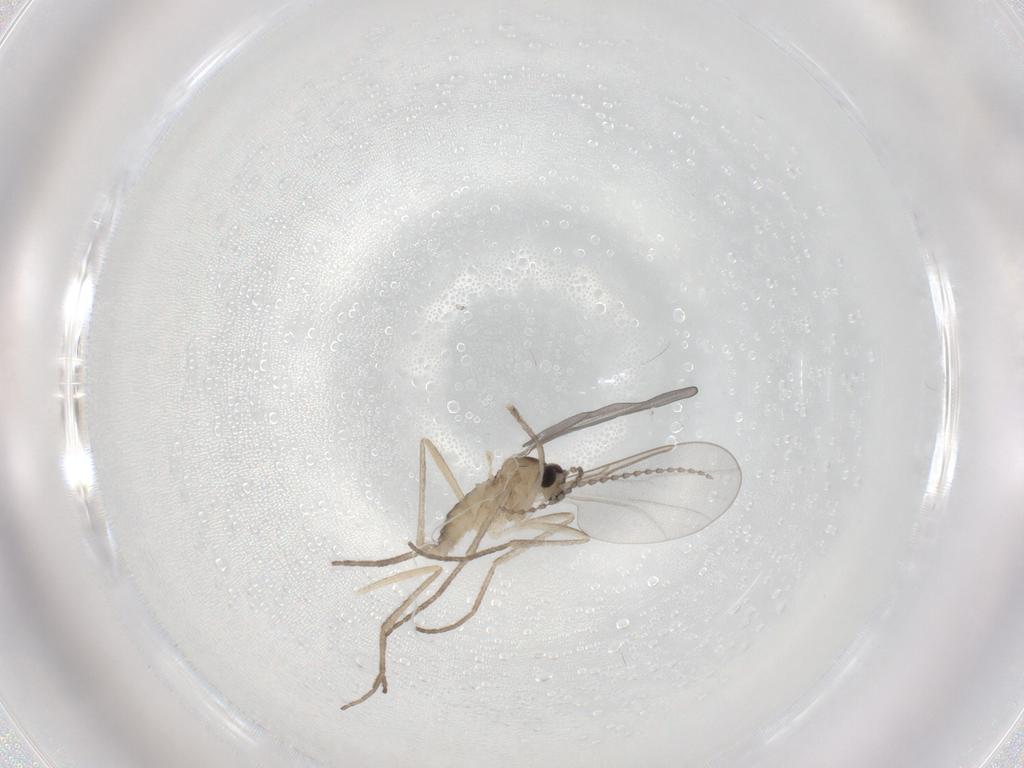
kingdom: Animalia
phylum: Arthropoda
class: Insecta
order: Diptera
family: Cecidomyiidae
